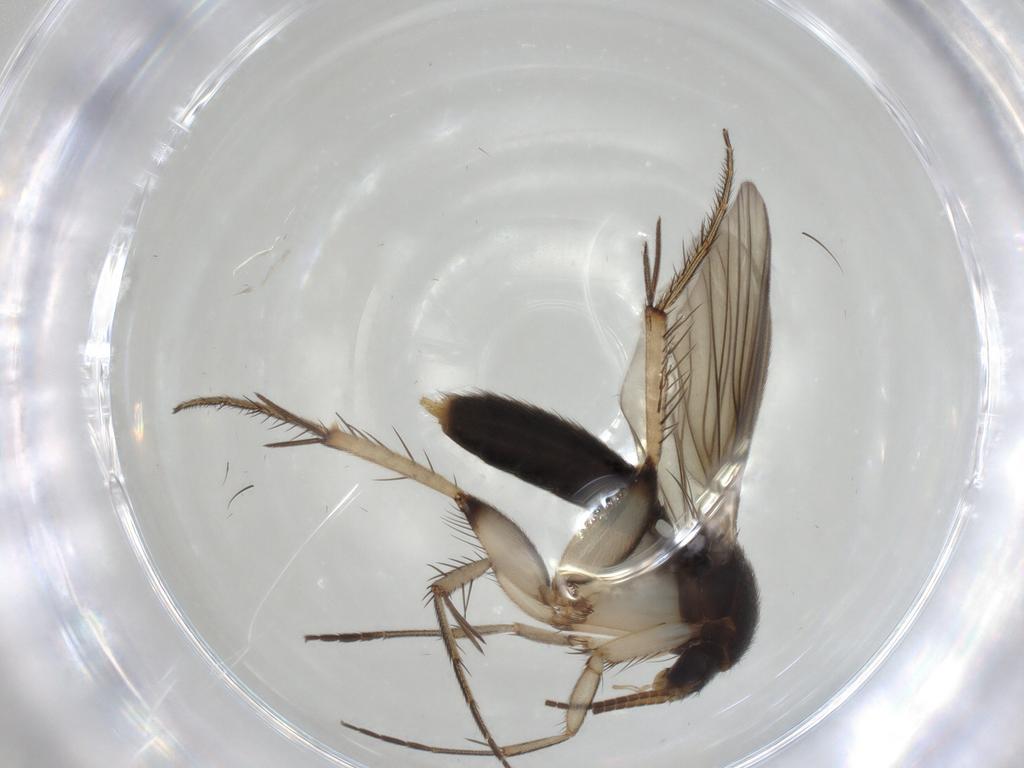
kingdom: Animalia
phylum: Arthropoda
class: Insecta
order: Diptera
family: Mycetophilidae
